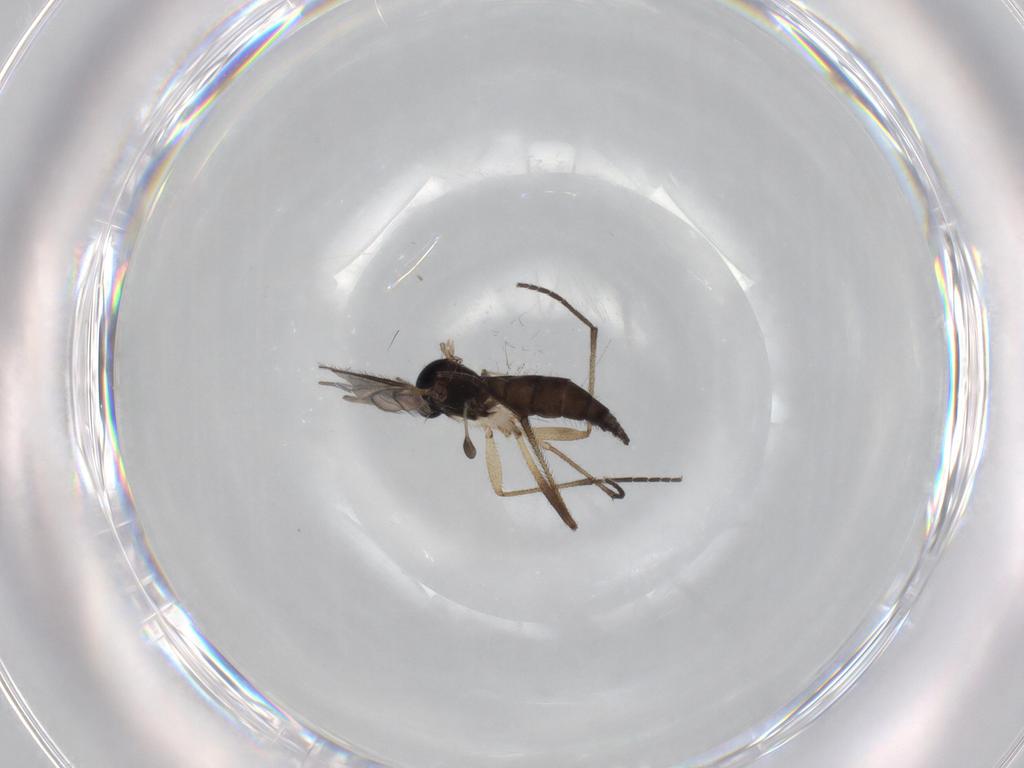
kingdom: Animalia
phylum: Arthropoda
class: Insecta
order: Diptera
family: Sciaridae
